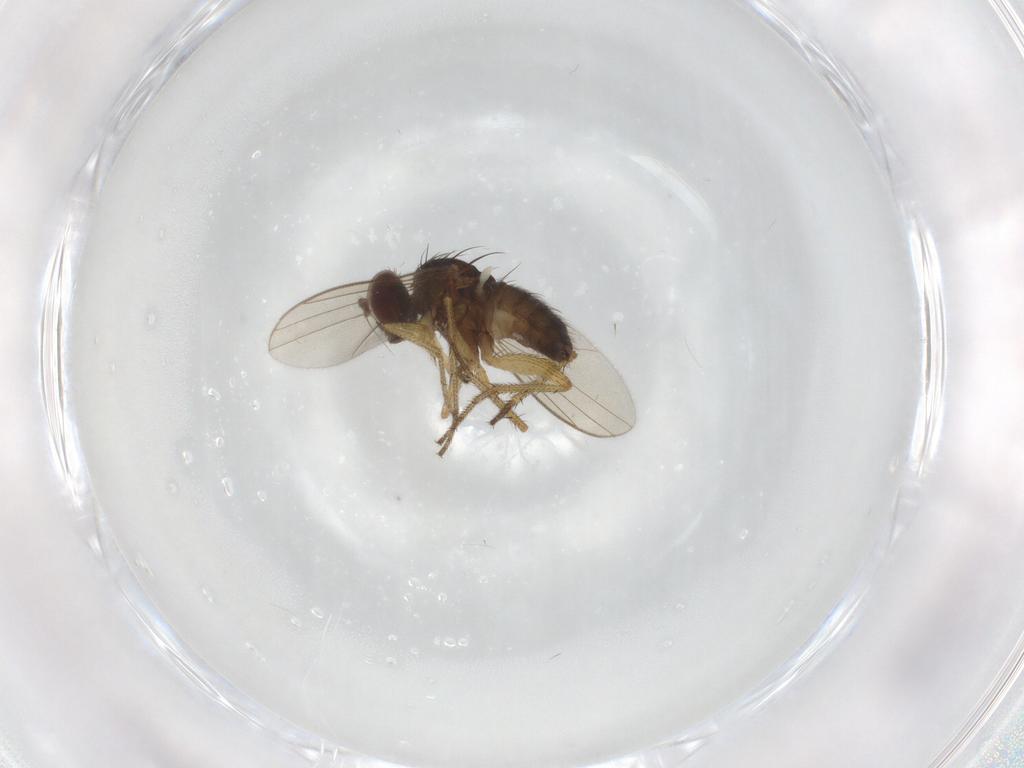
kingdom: Animalia
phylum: Arthropoda
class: Insecta
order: Diptera
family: Dolichopodidae
